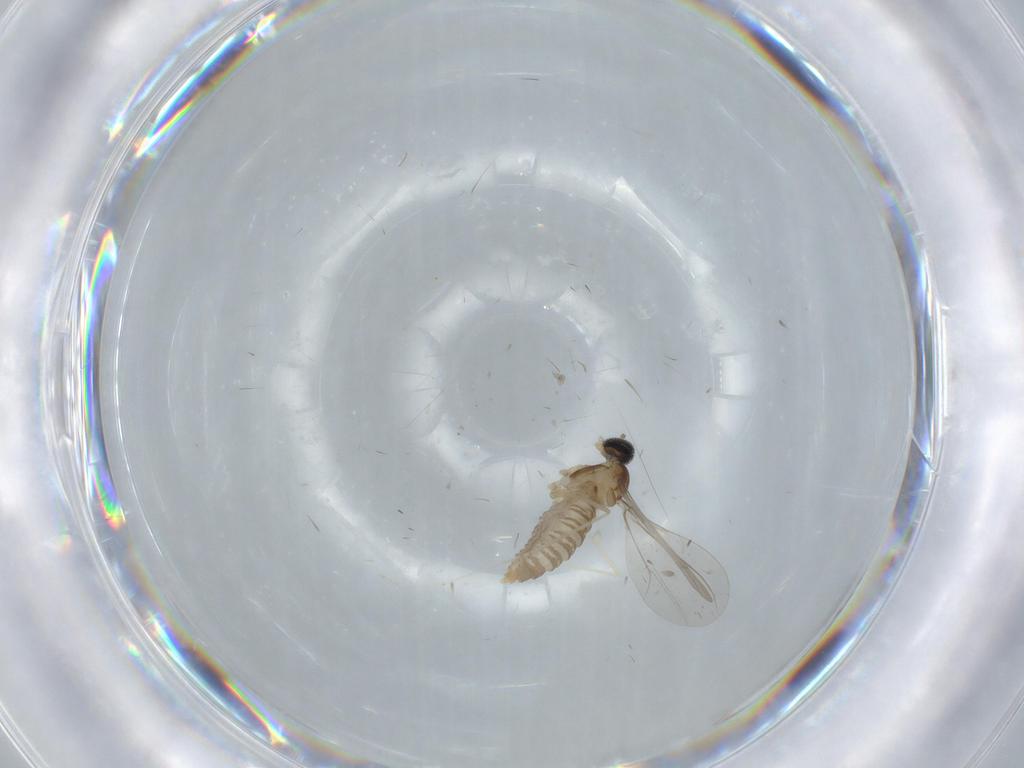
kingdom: Animalia
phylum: Arthropoda
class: Insecta
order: Diptera
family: Cecidomyiidae
